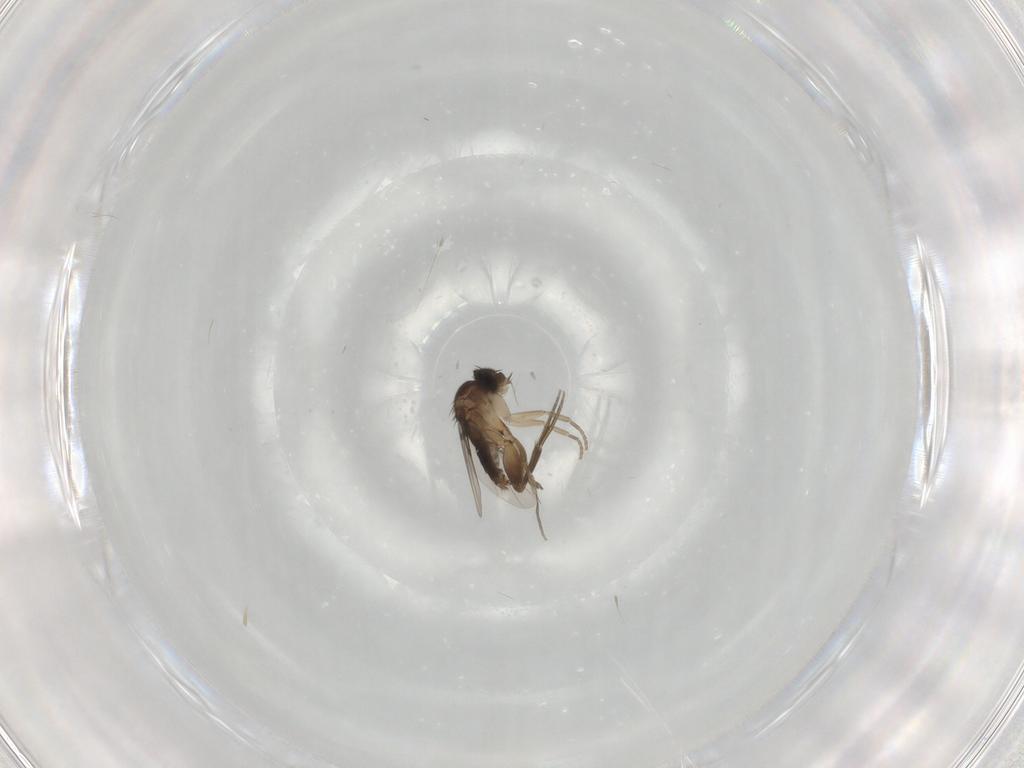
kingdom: Animalia
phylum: Arthropoda
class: Insecta
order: Diptera
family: Phoridae
